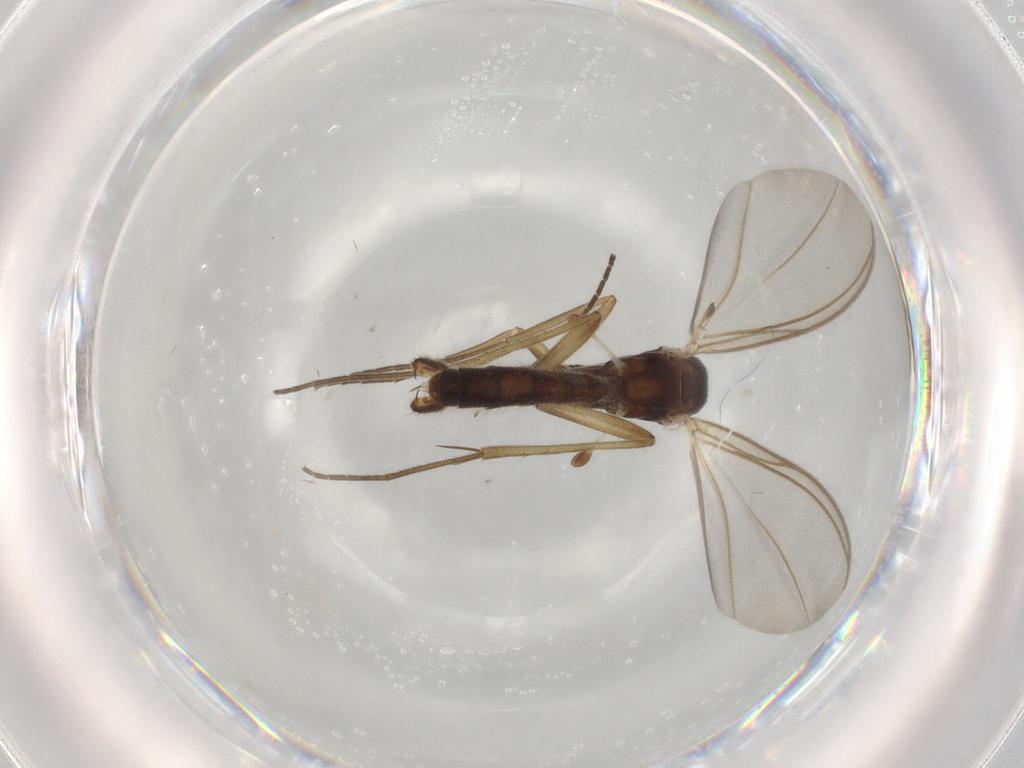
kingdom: Animalia
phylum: Arthropoda
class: Insecta
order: Diptera
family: Mycetophilidae
